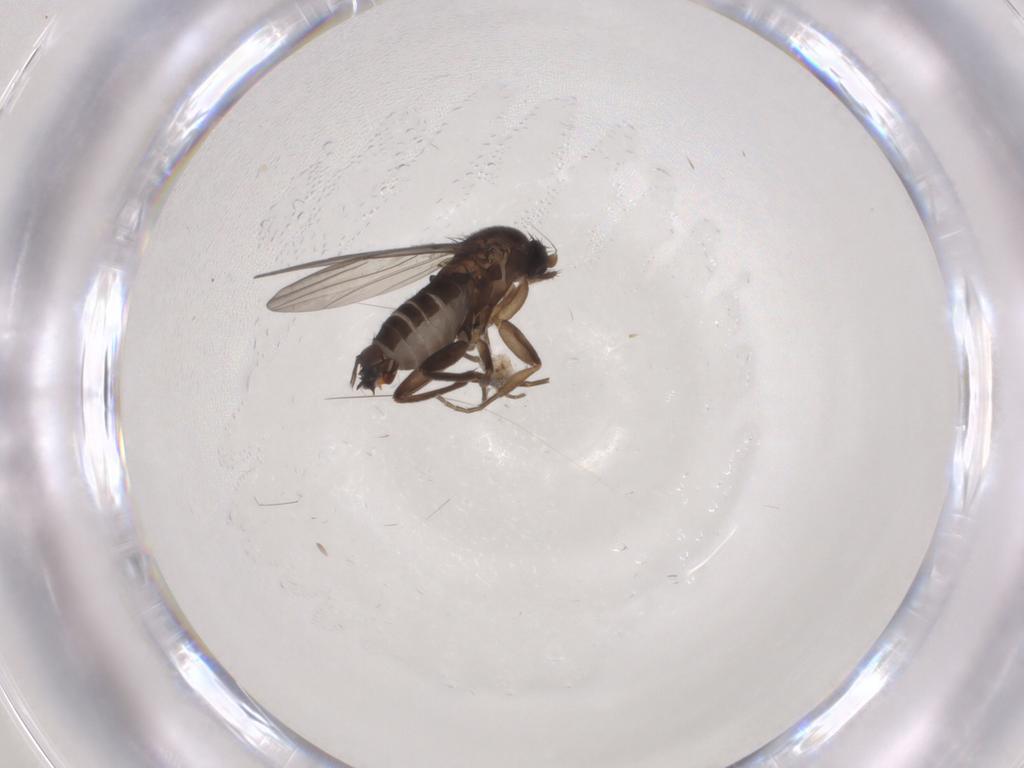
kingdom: Animalia
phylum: Arthropoda
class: Insecta
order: Diptera
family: Cecidomyiidae
